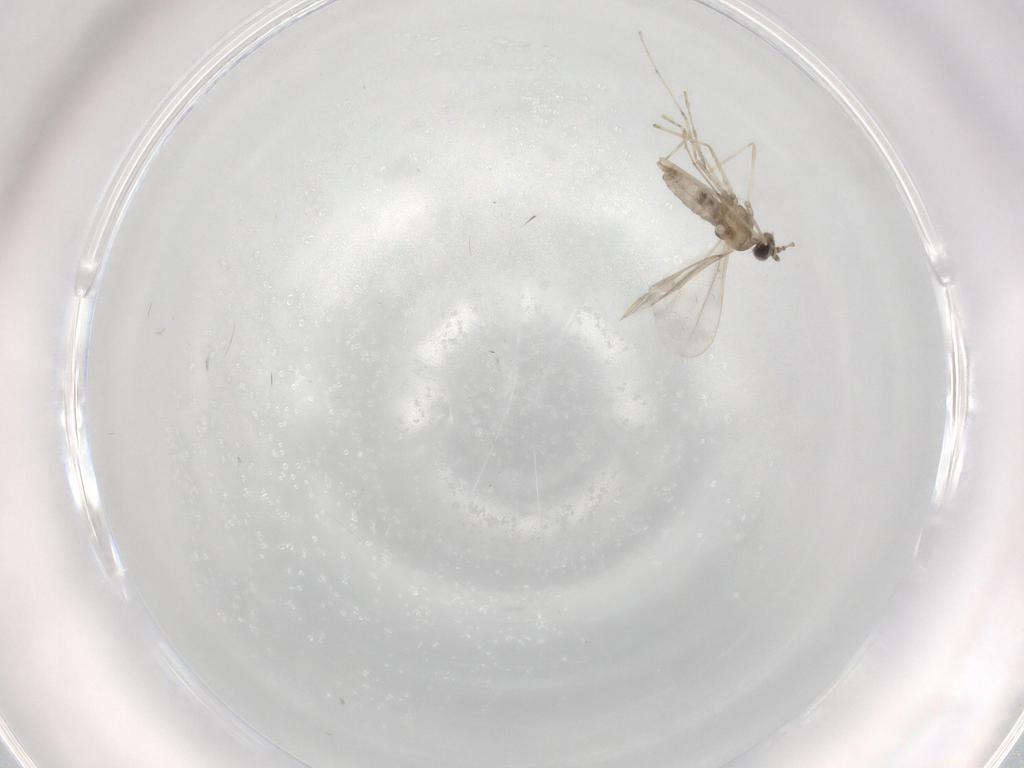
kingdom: Animalia
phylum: Arthropoda
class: Insecta
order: Diptera
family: Cecidomyiidae
